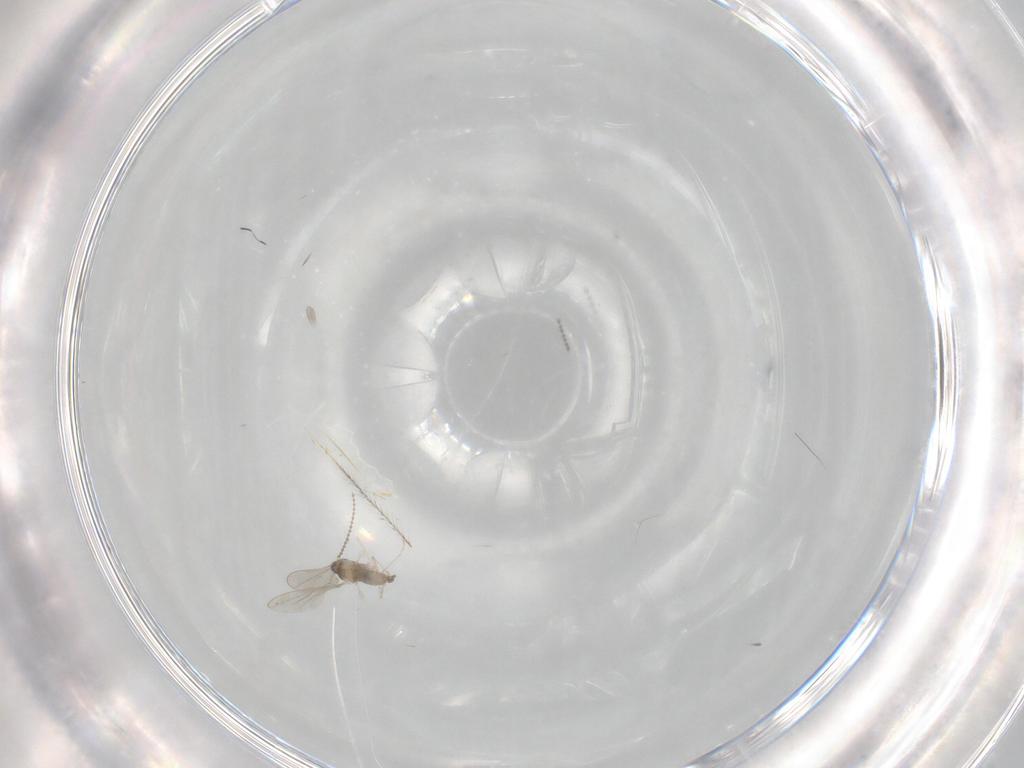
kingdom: Animalia
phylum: Arthropoda
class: Insecta
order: Diptera
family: Cecidomyiidae
